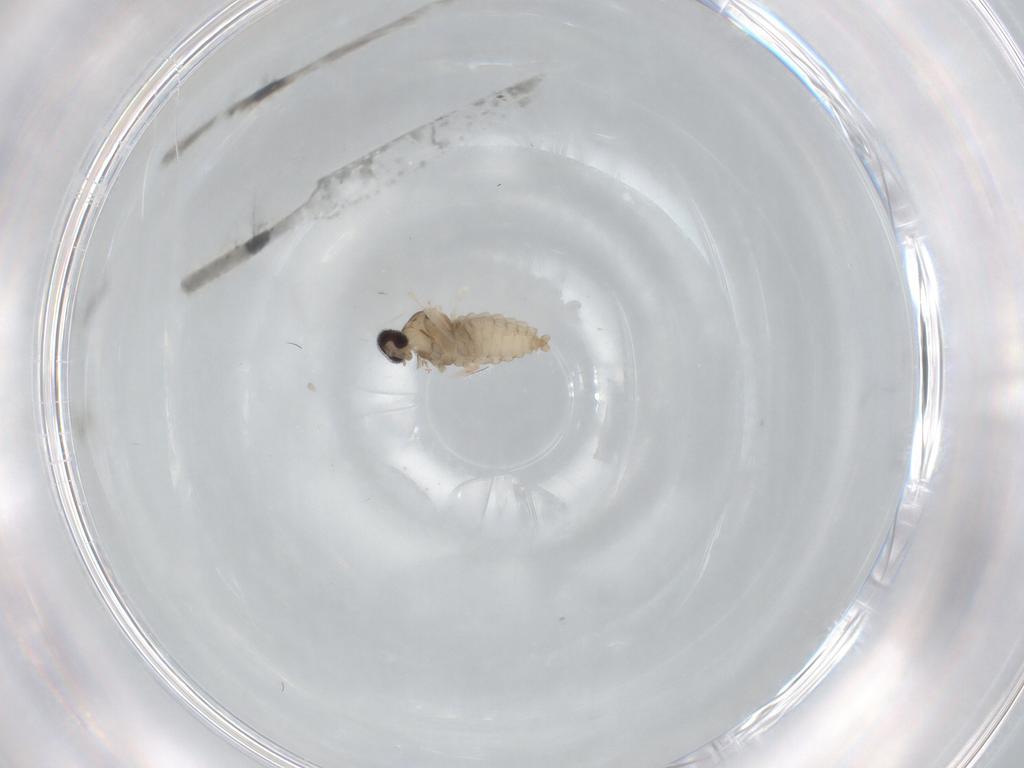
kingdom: Animalia
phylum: Arthropoda
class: Insecta
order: Diptera
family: Cecidomyiidae
